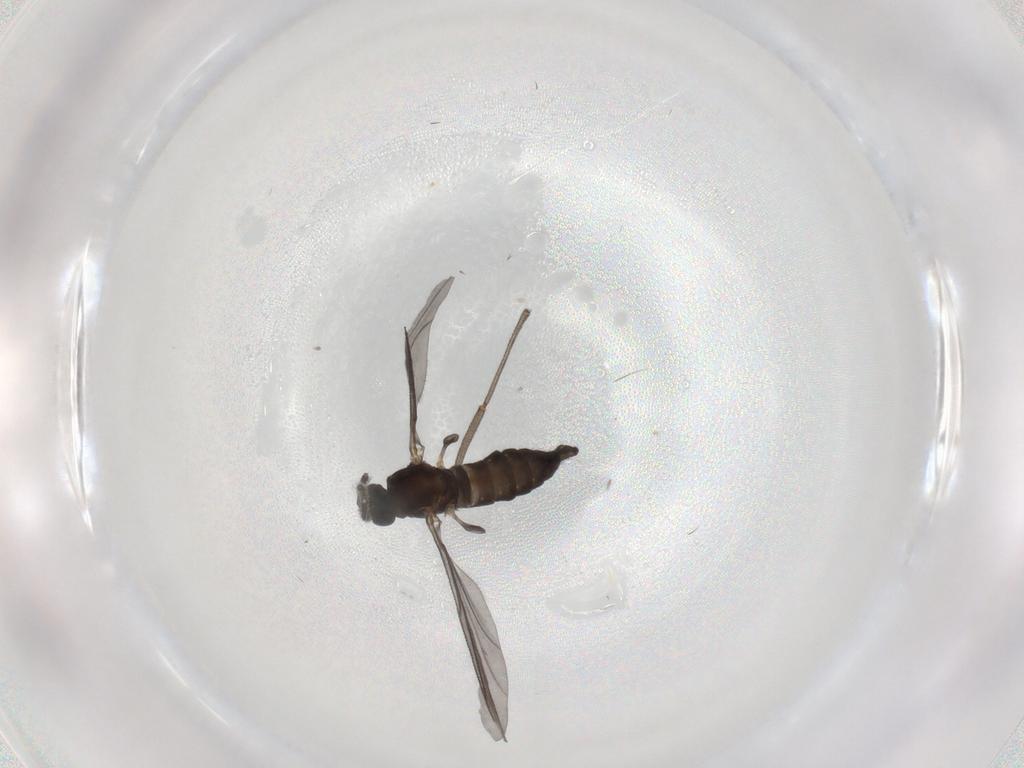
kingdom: Animalia
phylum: Arthropoda
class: Insecta
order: Diptera
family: Sciaridae
